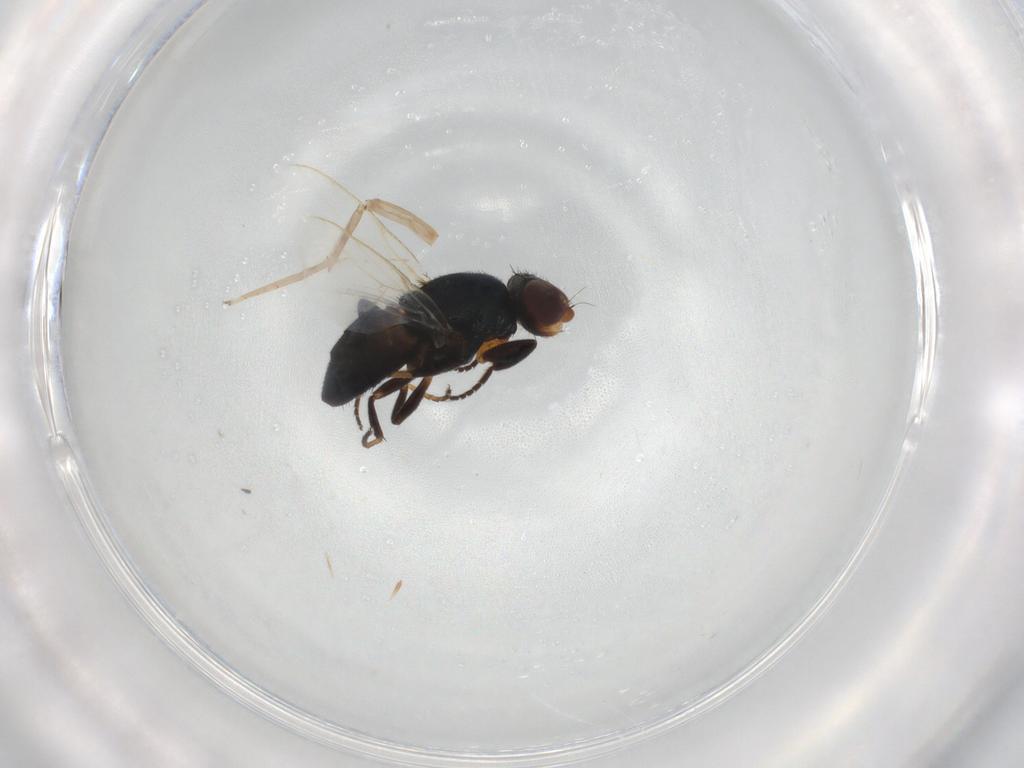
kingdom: Animalia
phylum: Arthropoda
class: Insecta
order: Diptera
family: Chloropidae
